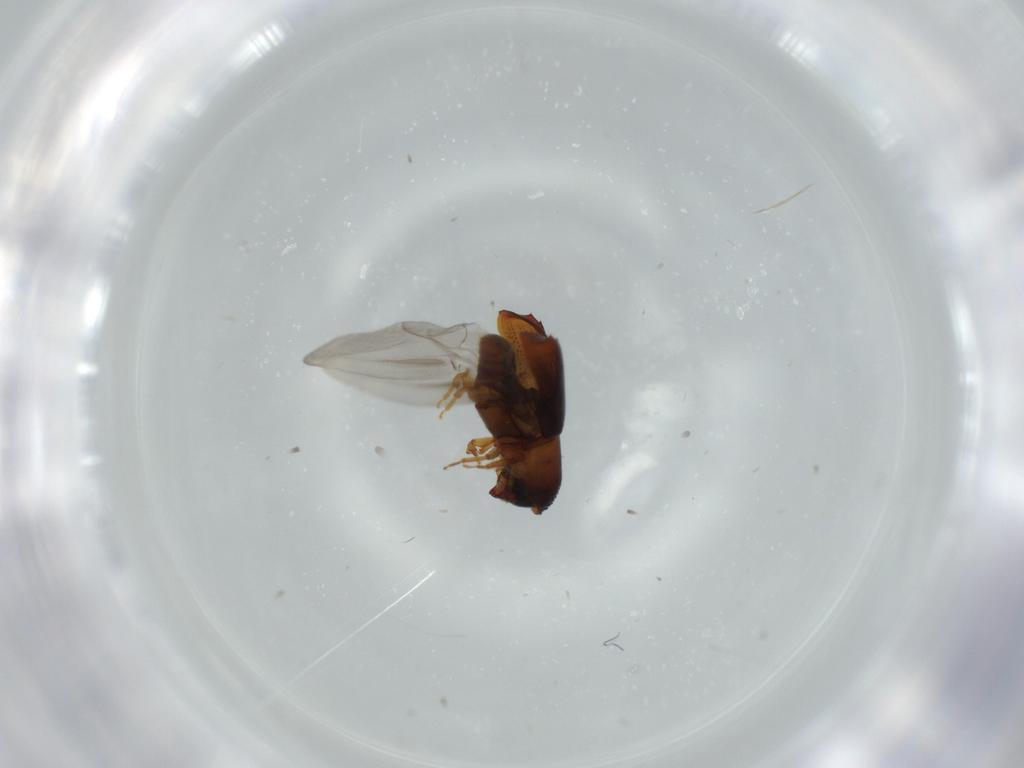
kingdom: Animalia
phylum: Arthropoda
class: Insecta
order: Coleoptera
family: Curculionidae
